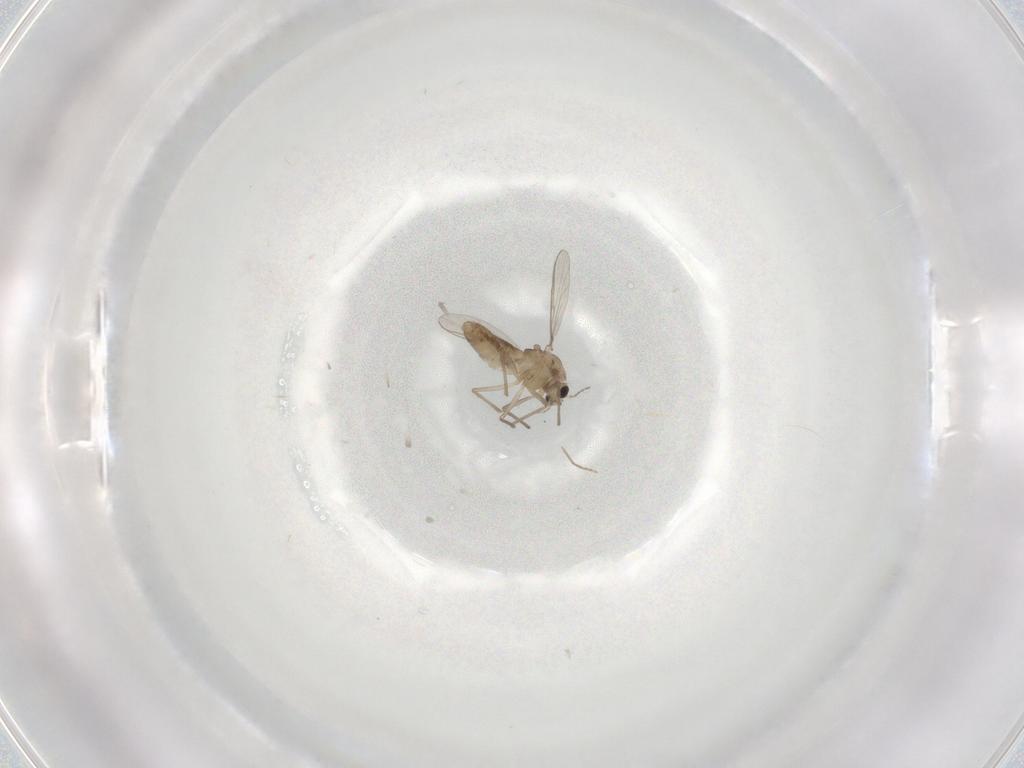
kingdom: Animalia
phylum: Arthropoda
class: Insecta
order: Diptera
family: Chironomidae
